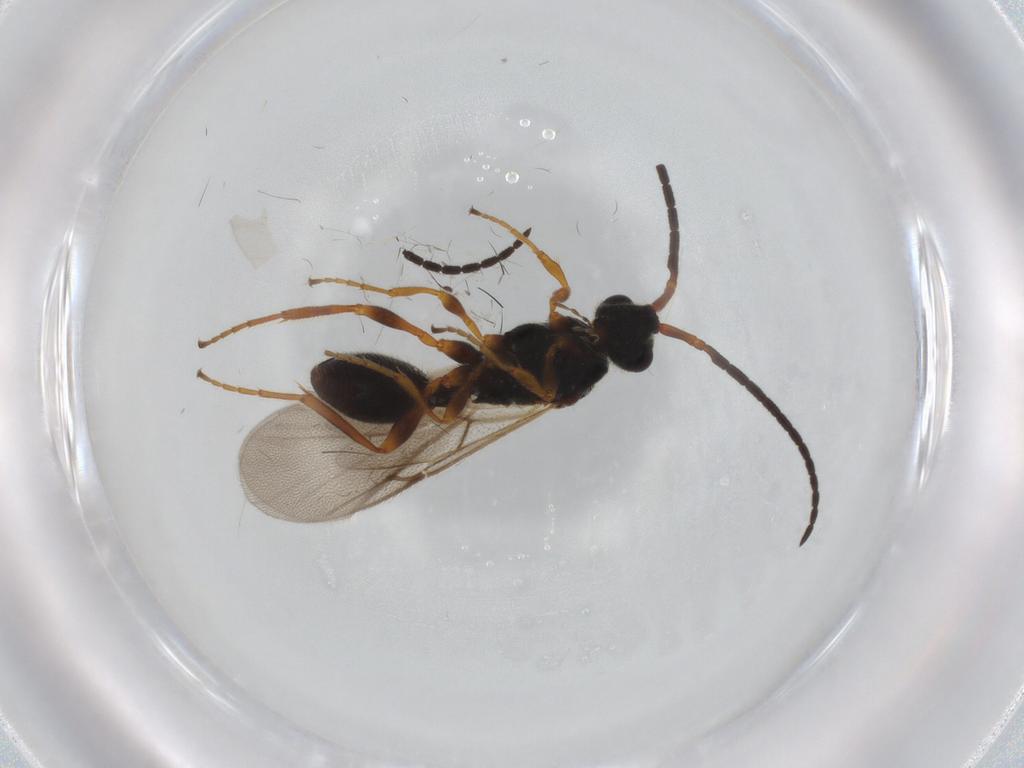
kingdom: Animalia
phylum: Arthropoda
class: Insecta
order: Hymenoptera
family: Diapriidae
